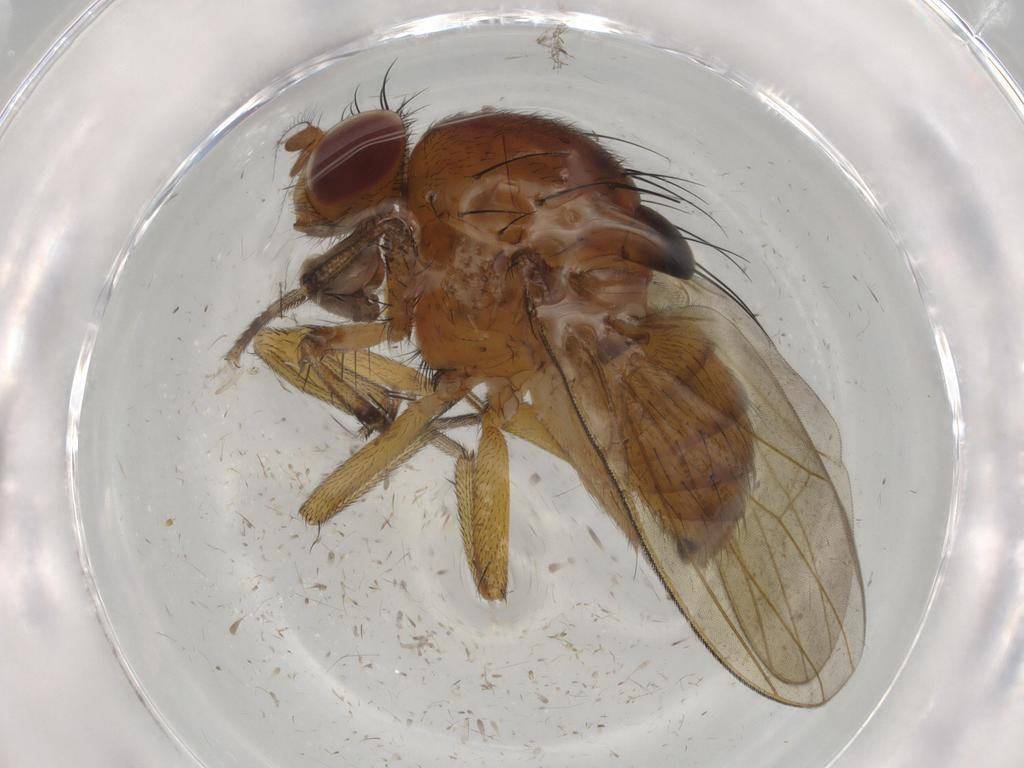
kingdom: Animalia
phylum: Arthropoda
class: Insecta
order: Diptera
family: Cecidomyiidae
